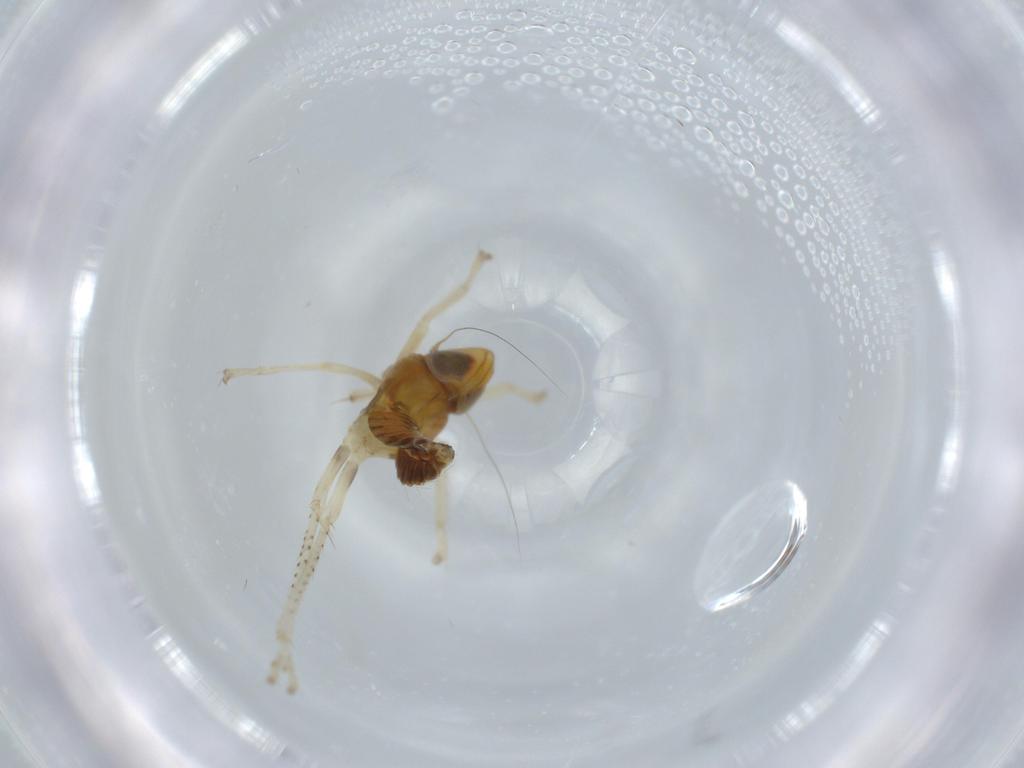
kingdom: Animalia
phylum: Arthropoda
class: Insecta
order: Hemiptera
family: Cicadellidae
